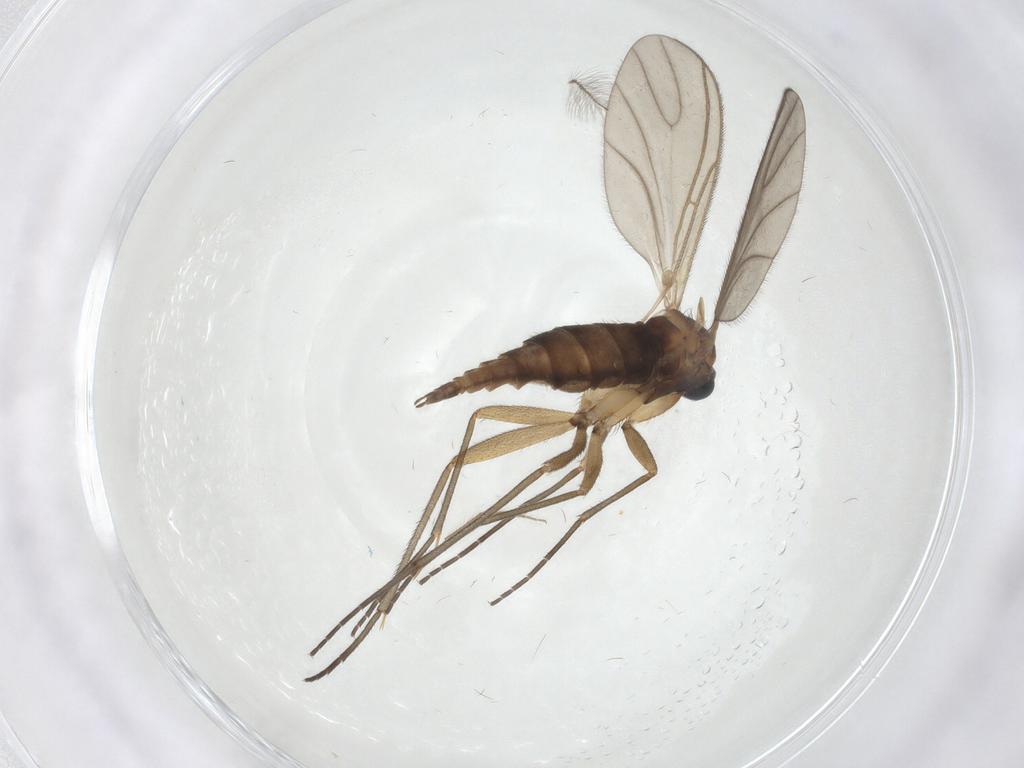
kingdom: Animalia
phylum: Arthropoda
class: Insecta
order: Diptera
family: Sciaridae
